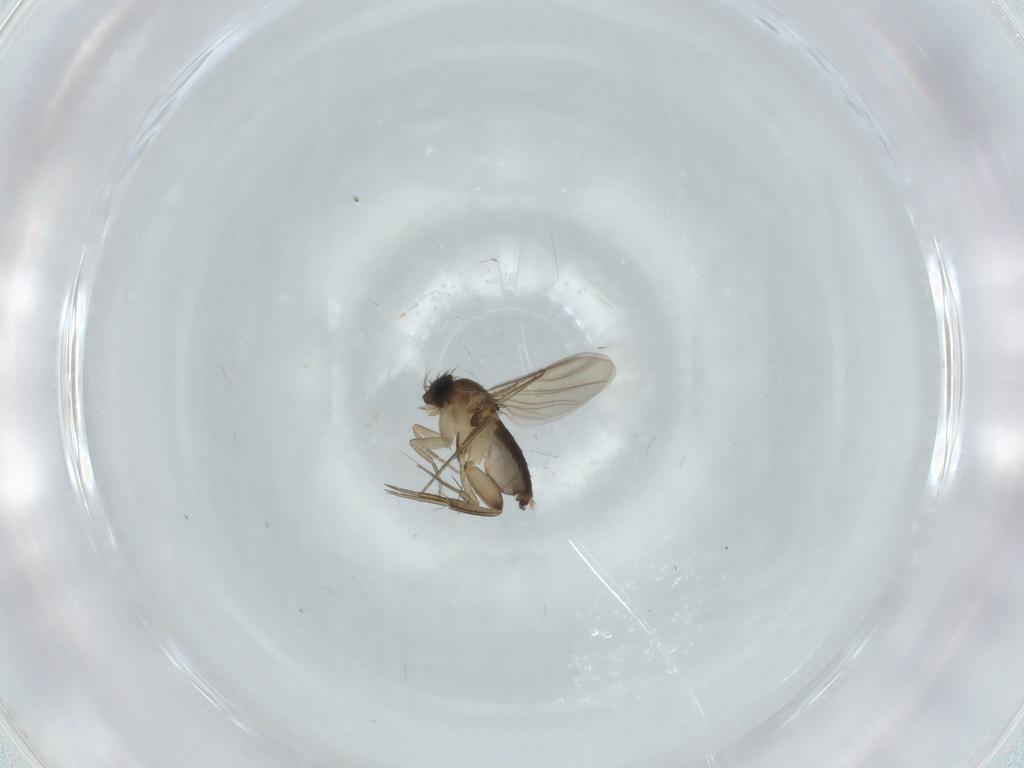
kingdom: Animalia
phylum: Arthropoda
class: Insecta
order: Diptera
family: Phoridae
